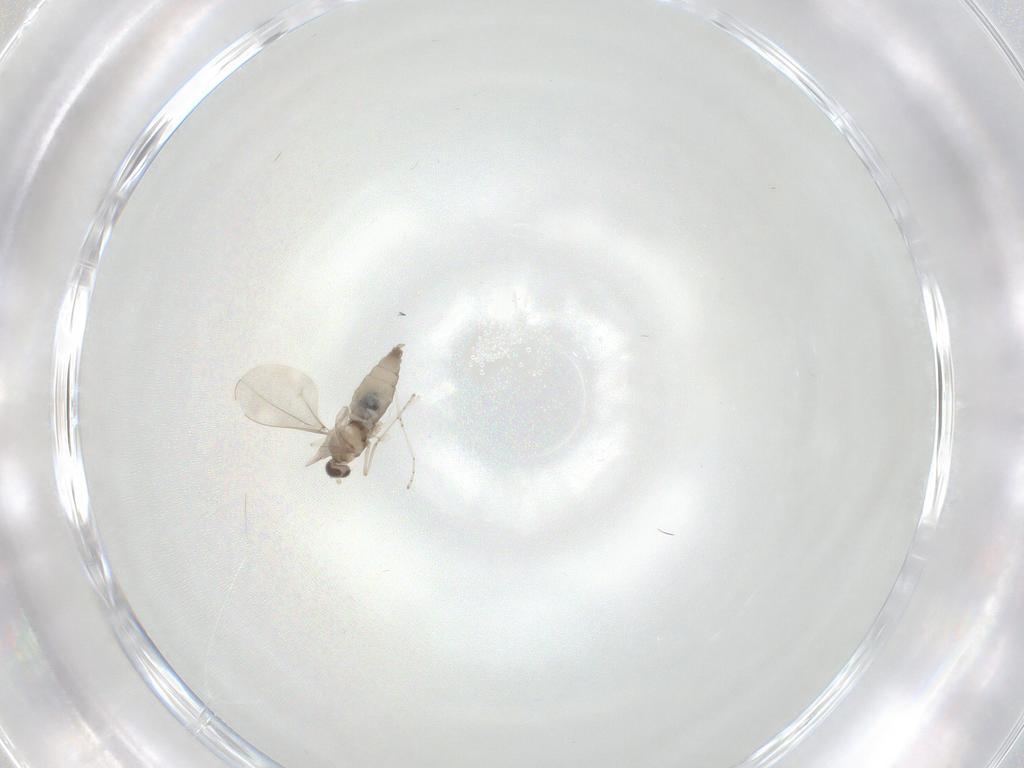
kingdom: Animalia
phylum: Arthropoda
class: Insecta
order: Diptera
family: Cecidomyiidae
